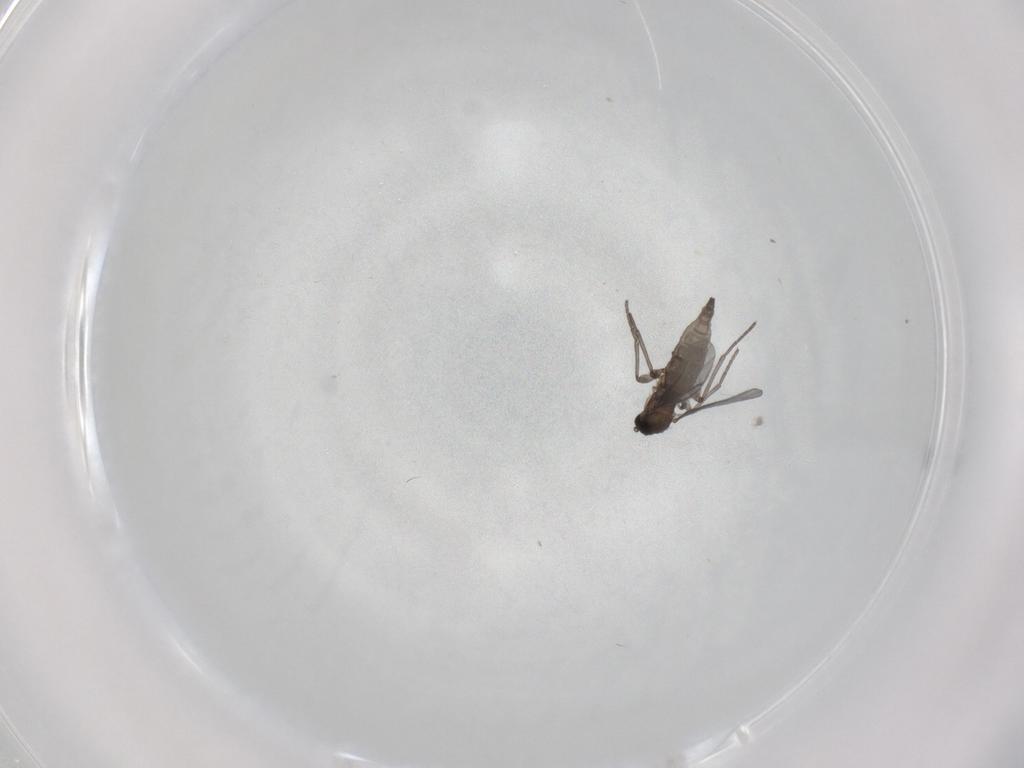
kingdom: Animalia
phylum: Arthropoda
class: Insecta
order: Diptera
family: Sciaridae
